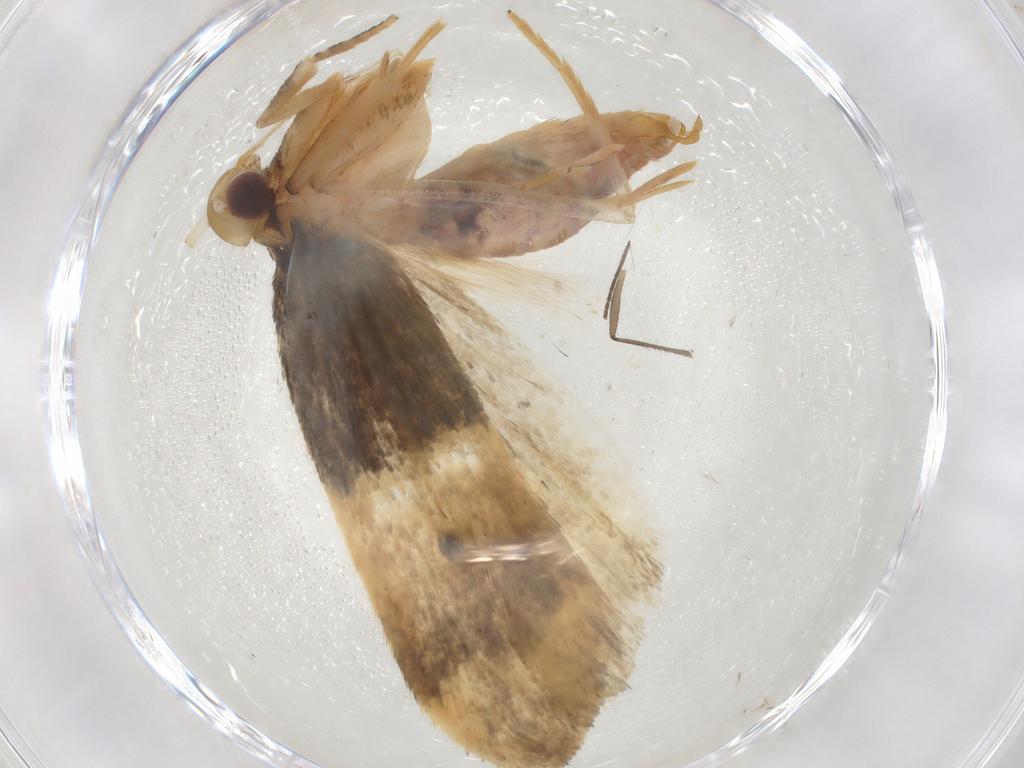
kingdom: Animalia
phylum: Arthropoda
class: Insecta
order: Lepidoptera
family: Lecithoceridae
